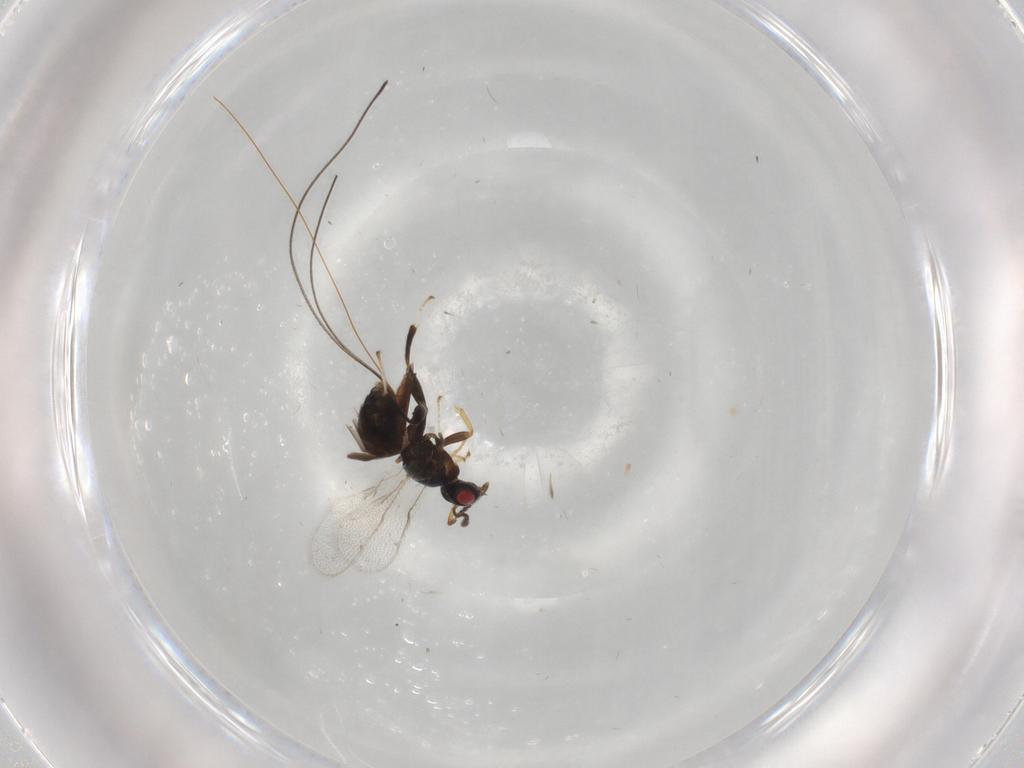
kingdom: Animalia
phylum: Arthropoda
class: Insecta
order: Hymenoptera
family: Torymidae
